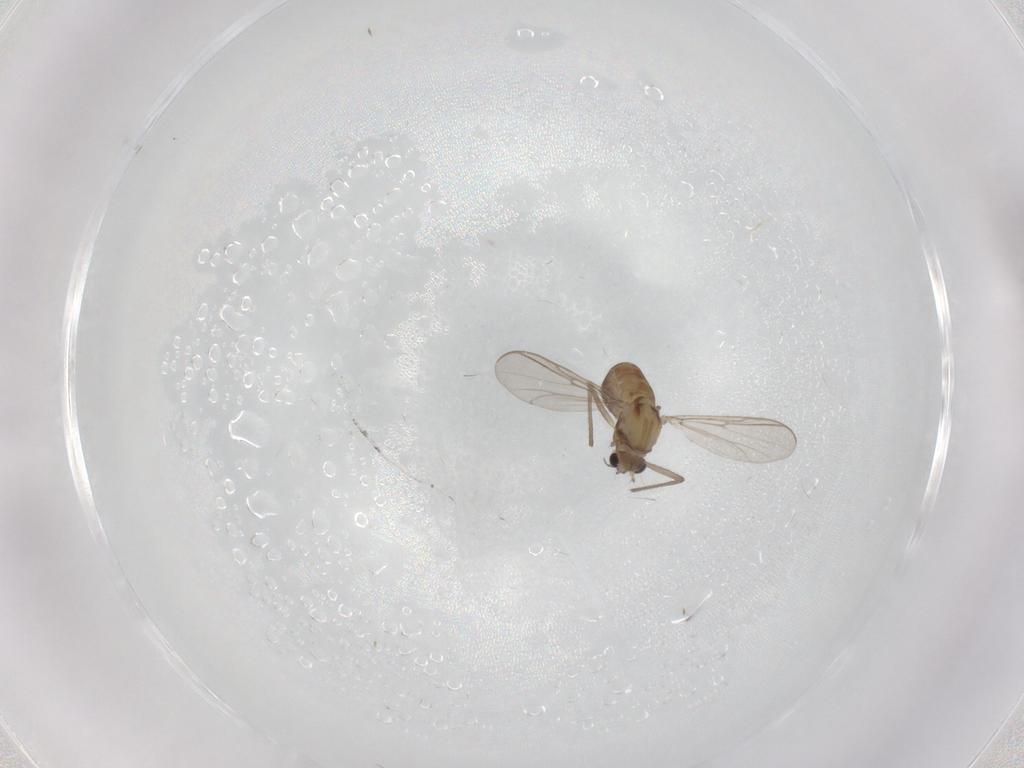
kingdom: Animalia
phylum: Arthropoda
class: Insecta
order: Diptera
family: Chironomidae
